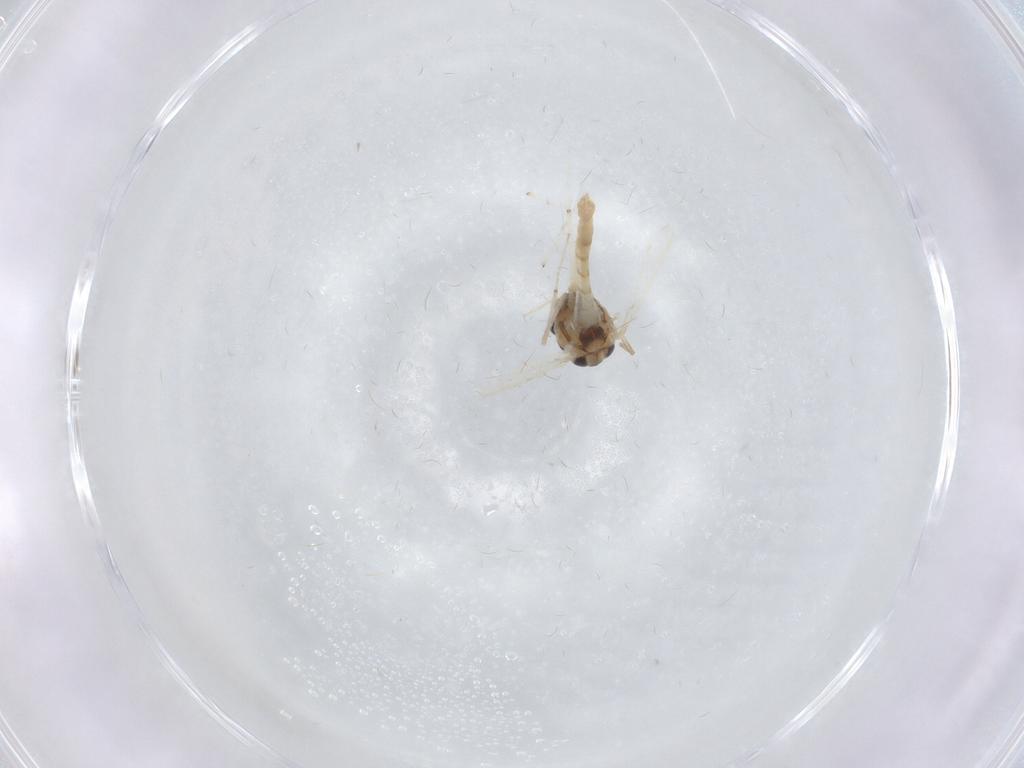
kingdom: Animalia
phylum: Arthropoda
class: Insecta
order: Diptera
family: Chironomidae
